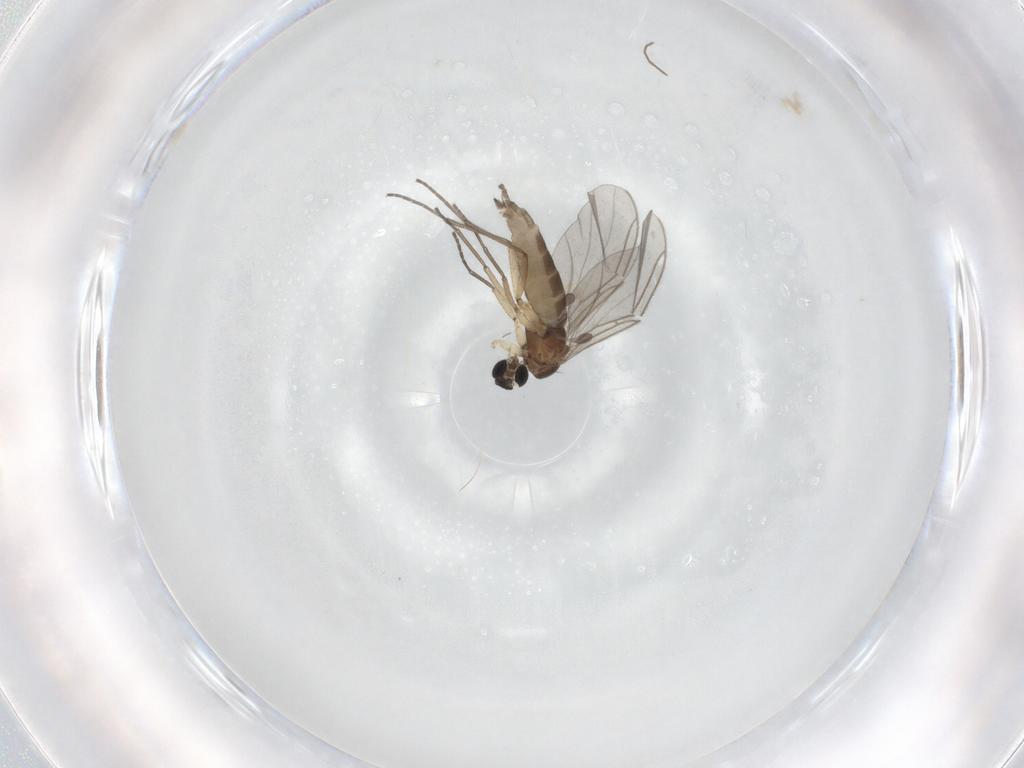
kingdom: Animalia
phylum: Arthropoda
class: Insecta
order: Diptera
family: Sciaridae
